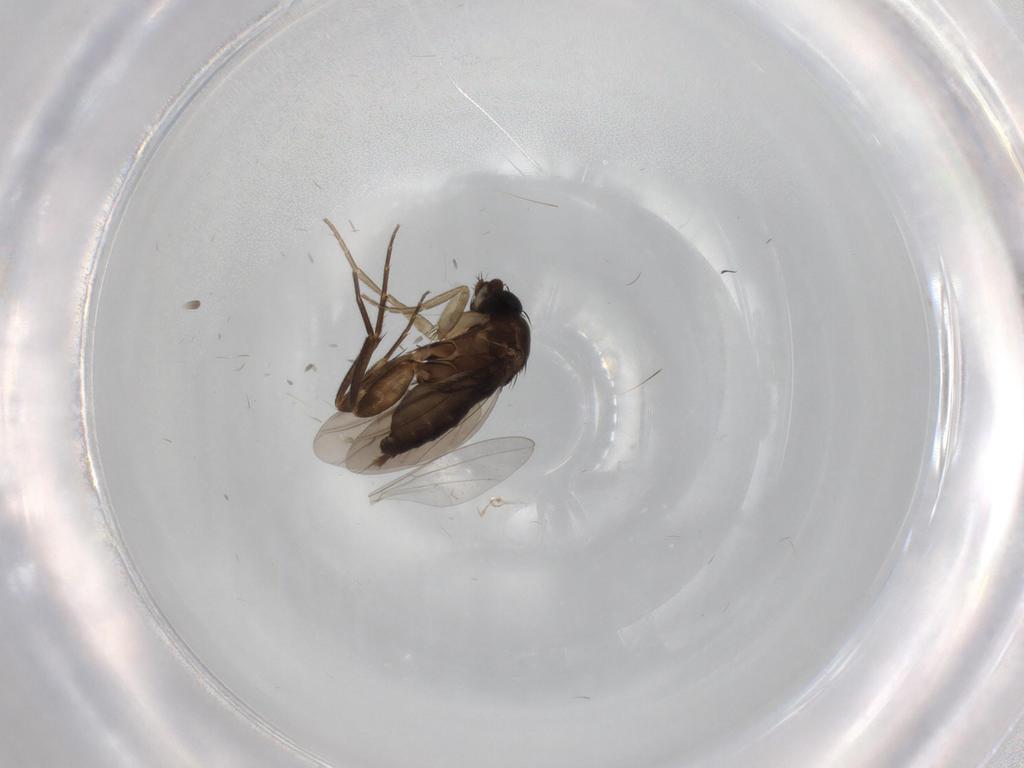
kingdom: Animalia
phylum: Arthropoda
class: Insecta
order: Diptera
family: Phoridae
